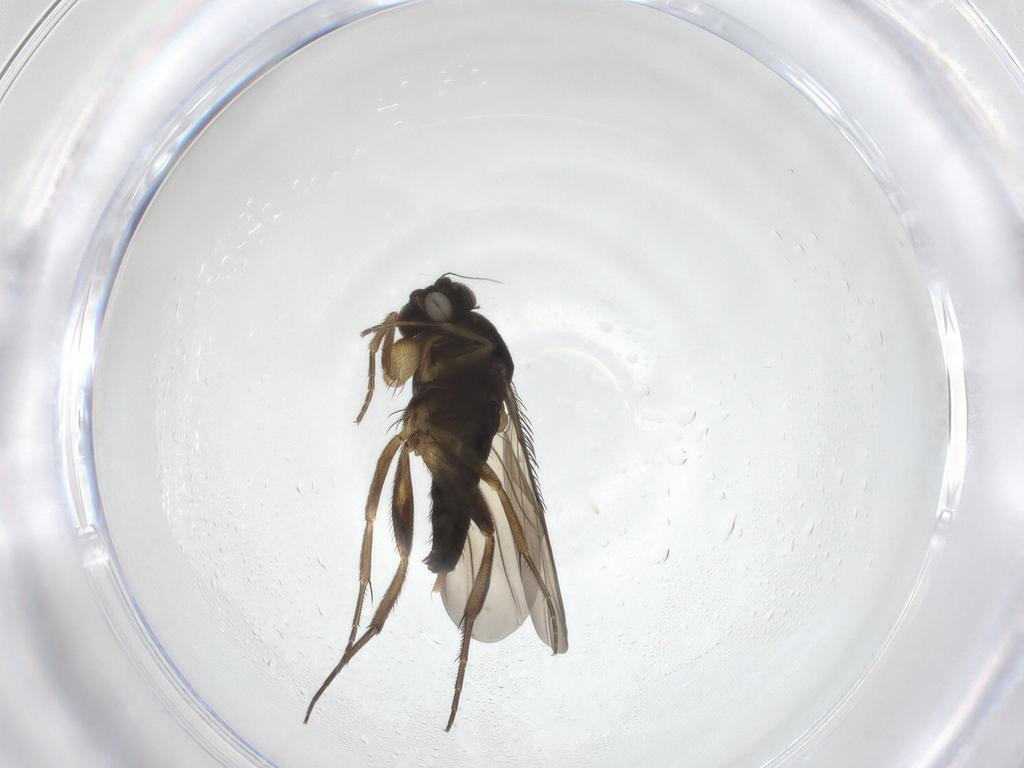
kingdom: Animalia
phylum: Arthropoda
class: Insecta
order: Diptera
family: Phoridae
